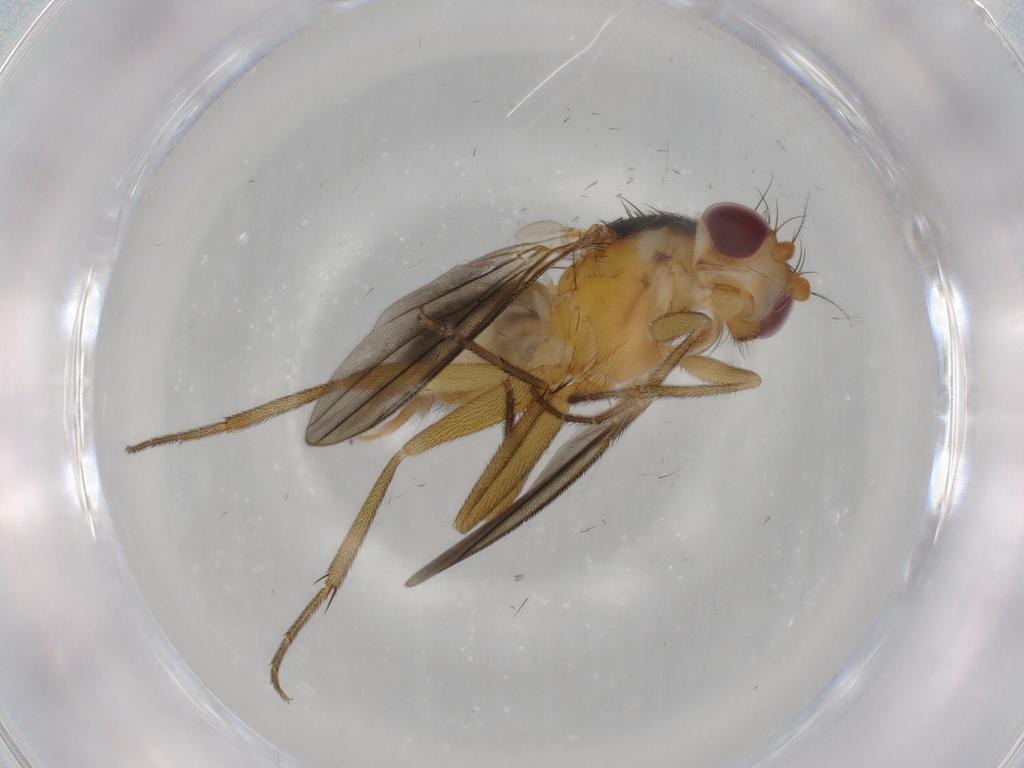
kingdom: Animalia
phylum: Arthropoda
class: Insecta
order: Diptera
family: Clusiidae
